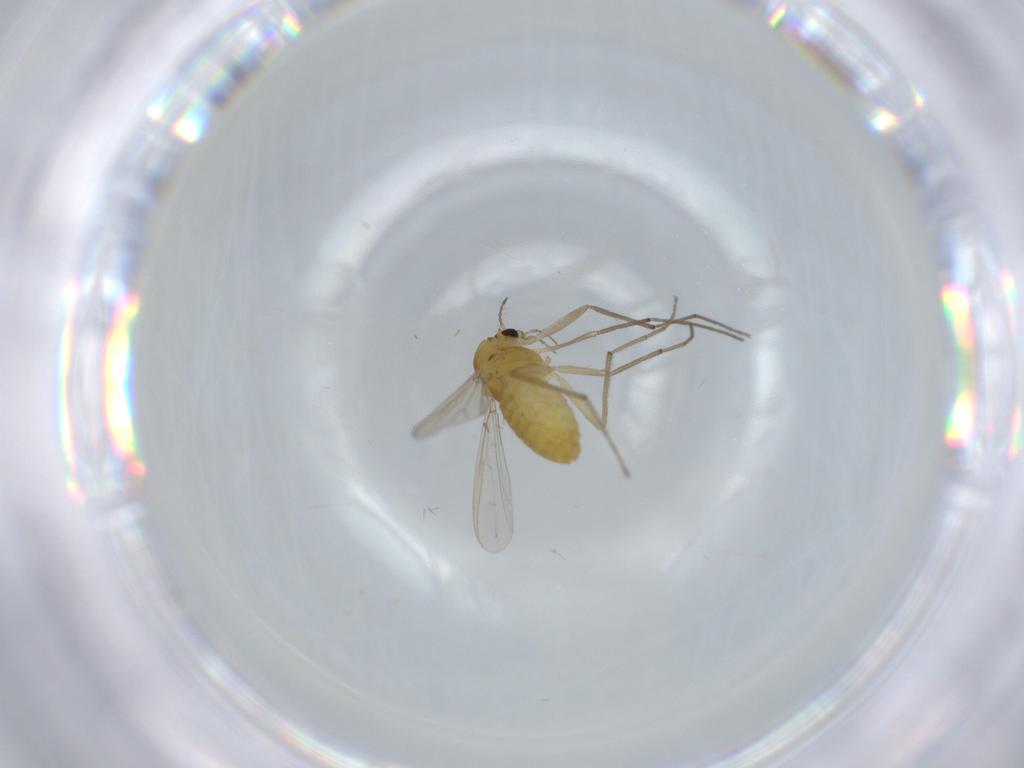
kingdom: Animalia
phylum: Arthropoda
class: Insecta
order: Diptera
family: Chironomidae
